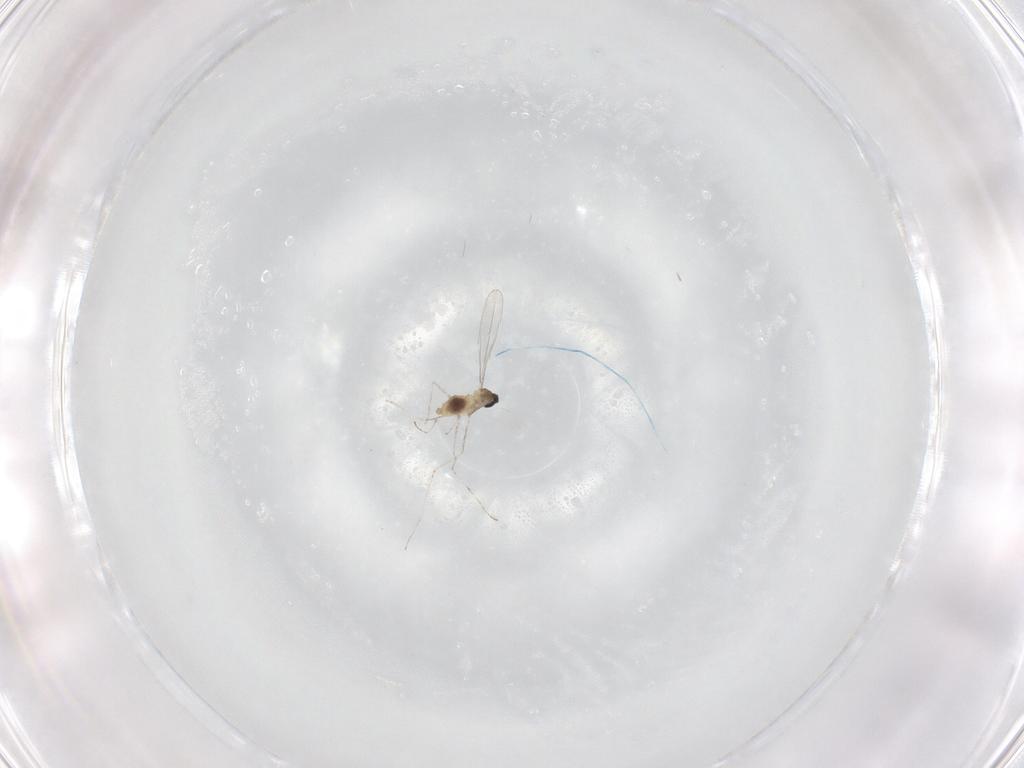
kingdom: Animalia
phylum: Arthropoda
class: Insecta
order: Diptera
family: Cecidomyiidae
